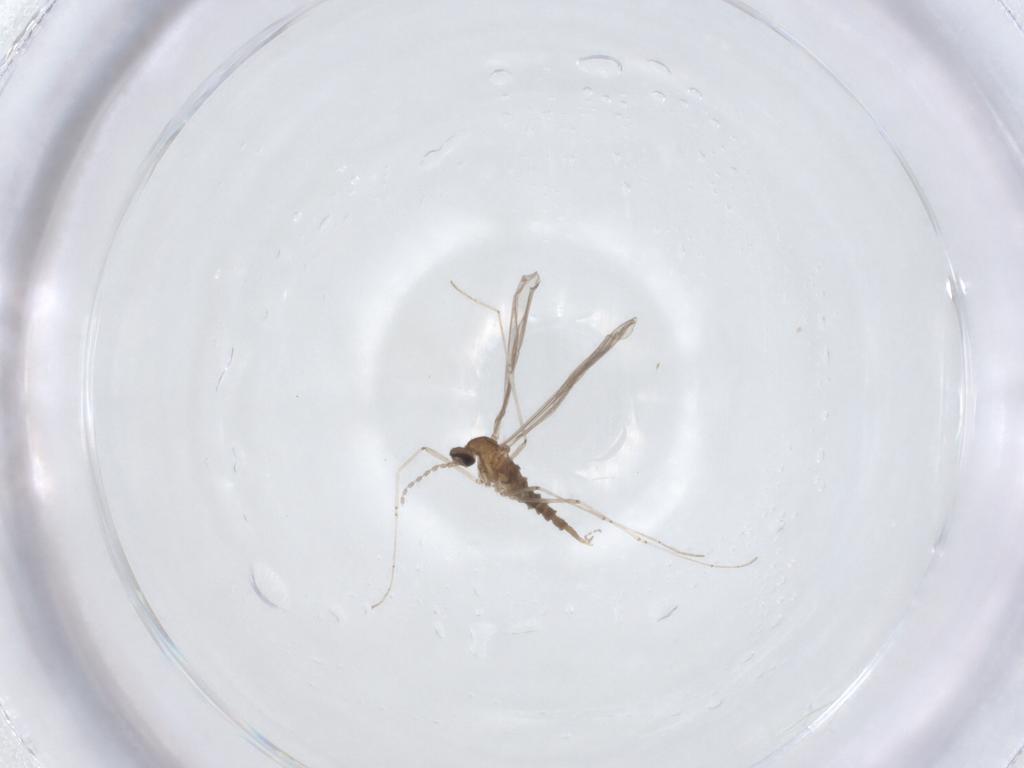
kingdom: Animalia
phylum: Arthropoda
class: Insecta
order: Diptera
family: Cecidomyiidae
